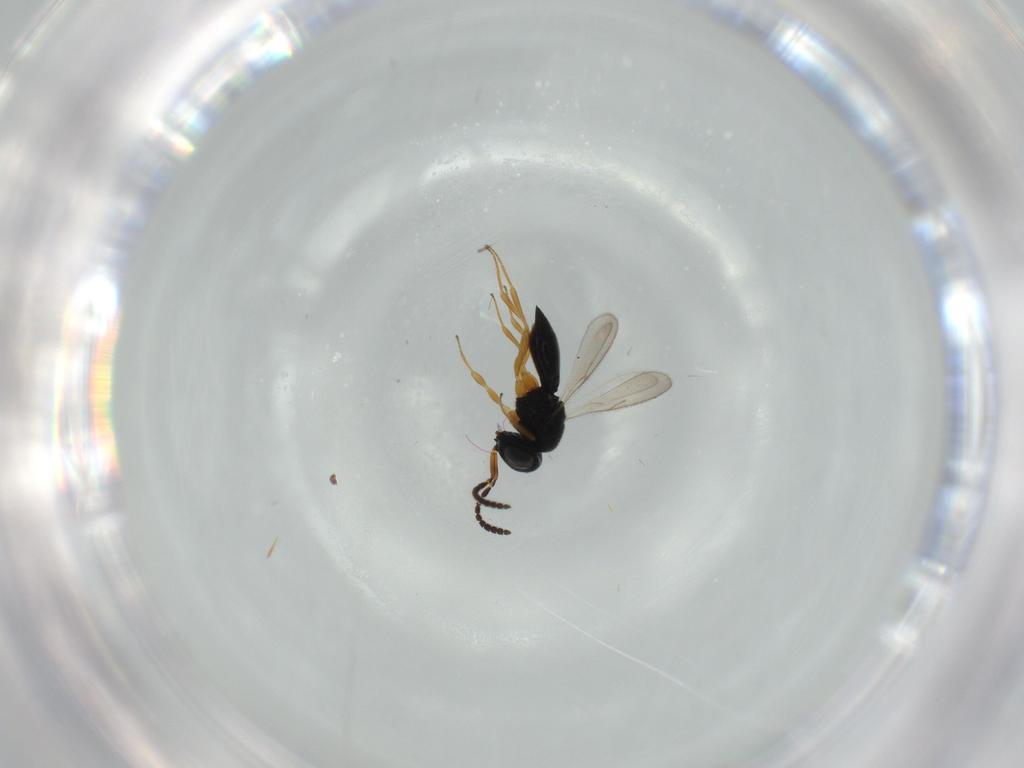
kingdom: Animalia
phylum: Arthropoda
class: Insecta
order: Hymenoptera
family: Scelionidae
